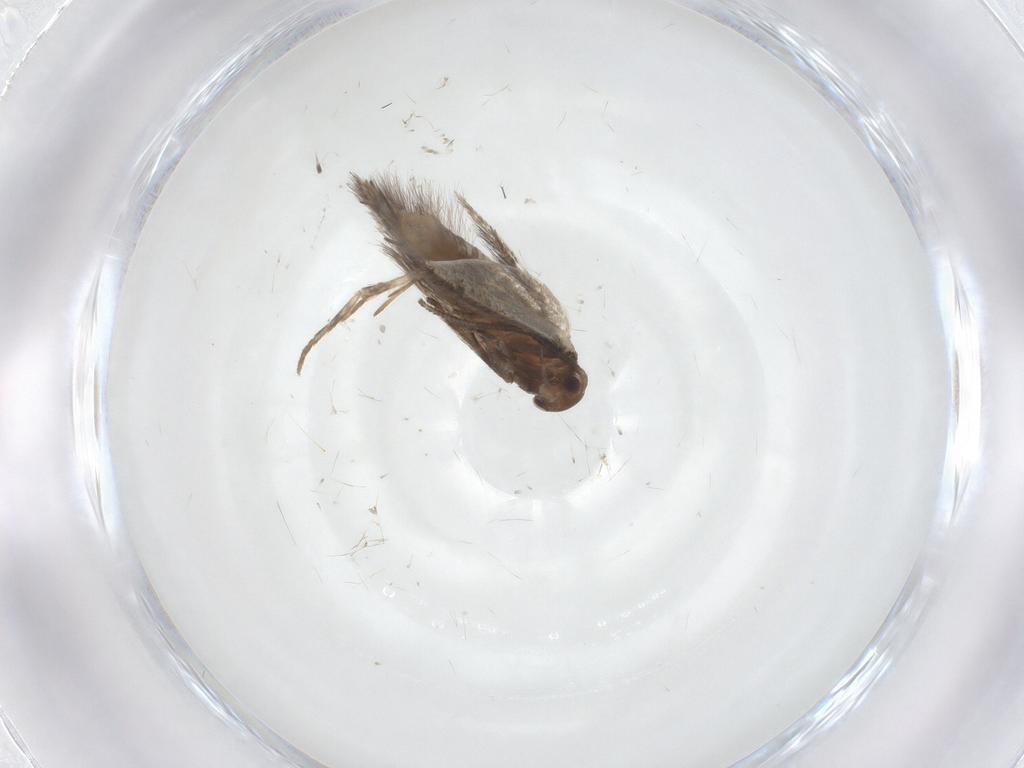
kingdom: Animalia
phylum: Arthropoda
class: Insecta
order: Lepidoptera
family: Elachistidae
